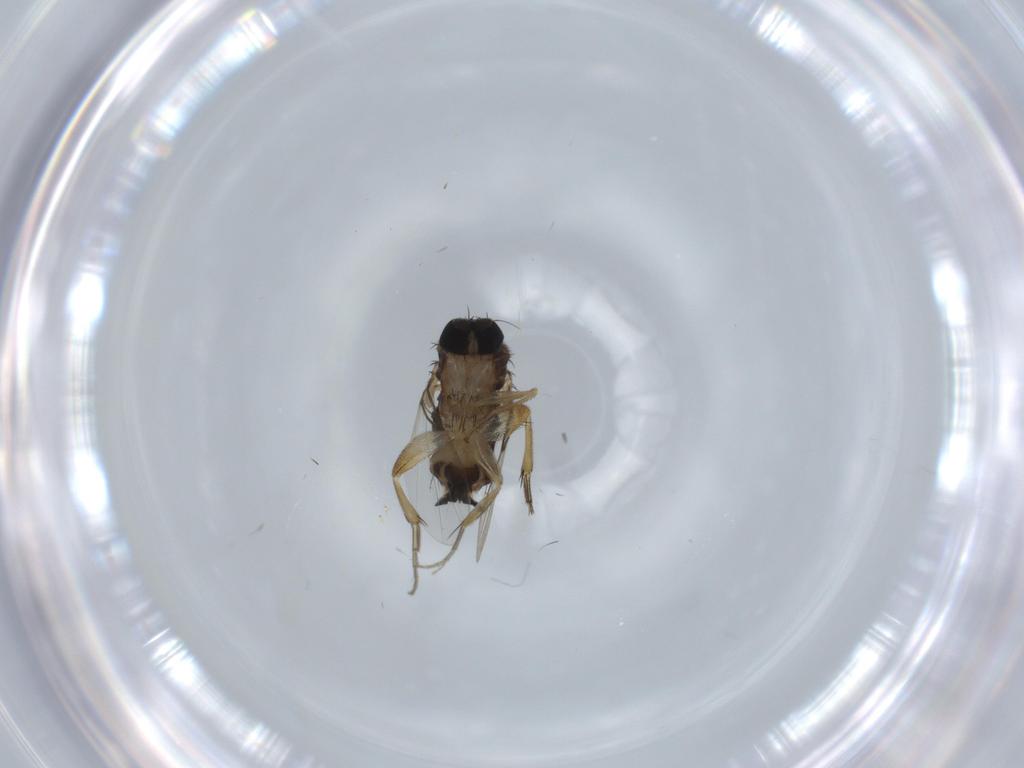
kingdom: Animalia
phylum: Arthropoda
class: Insecta
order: Diptera
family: Phoridae
